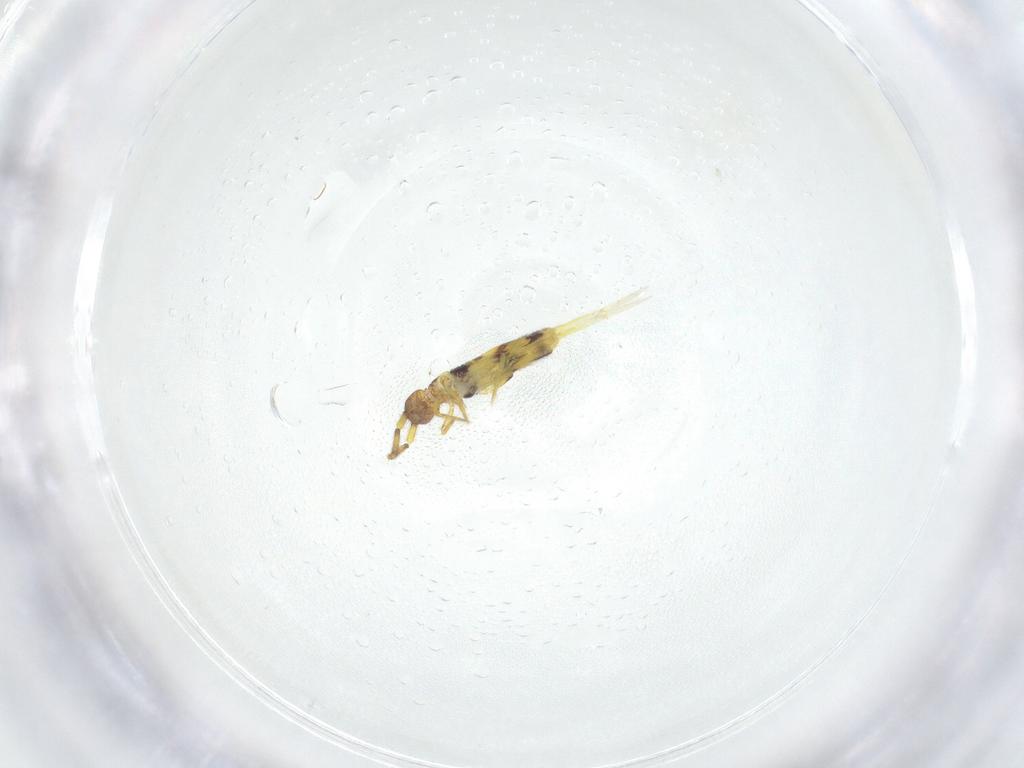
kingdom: Animalia
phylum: Arthropoda
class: Collembola
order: Entomobryomorpha
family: Entomobryidae
